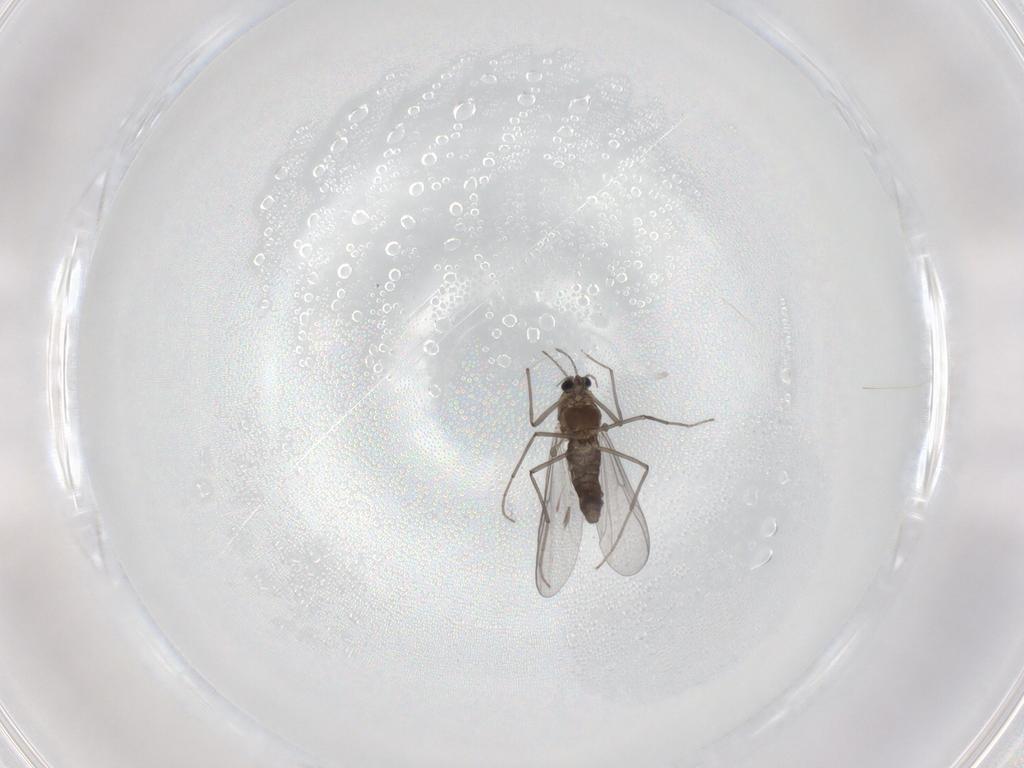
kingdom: Animalia
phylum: Arthropoda
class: Insecta
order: Diptera
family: Chironomidae
